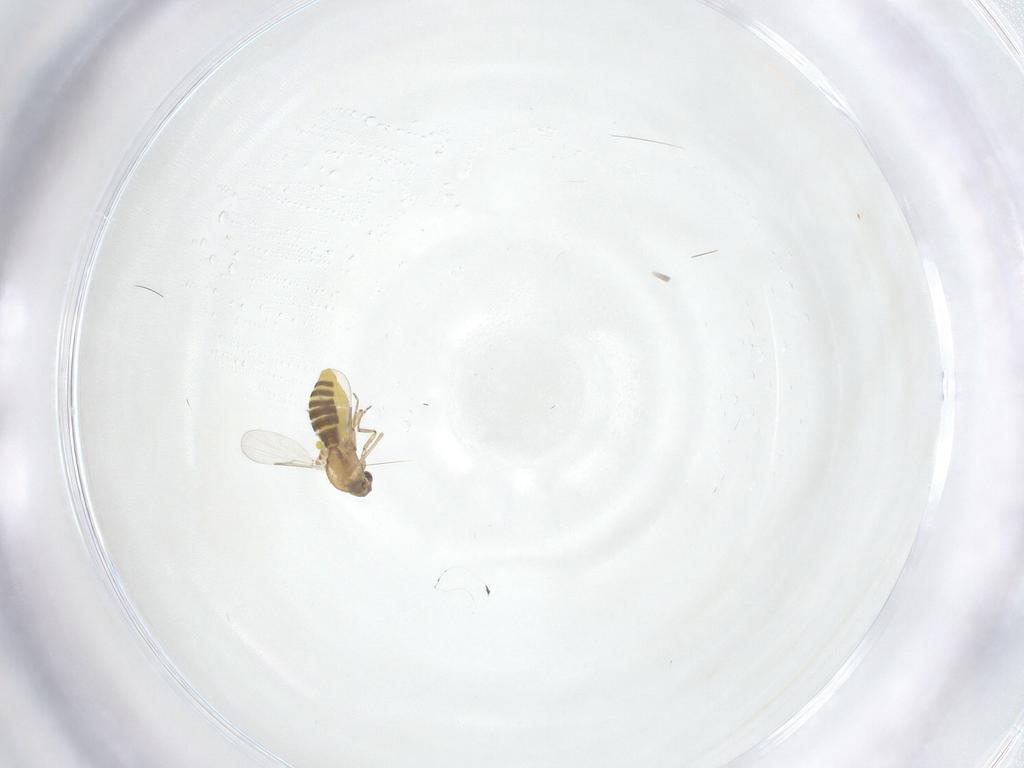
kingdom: Animalia
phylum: Arthropoda
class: Insecta
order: Diptera
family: Ceratopogonidae
